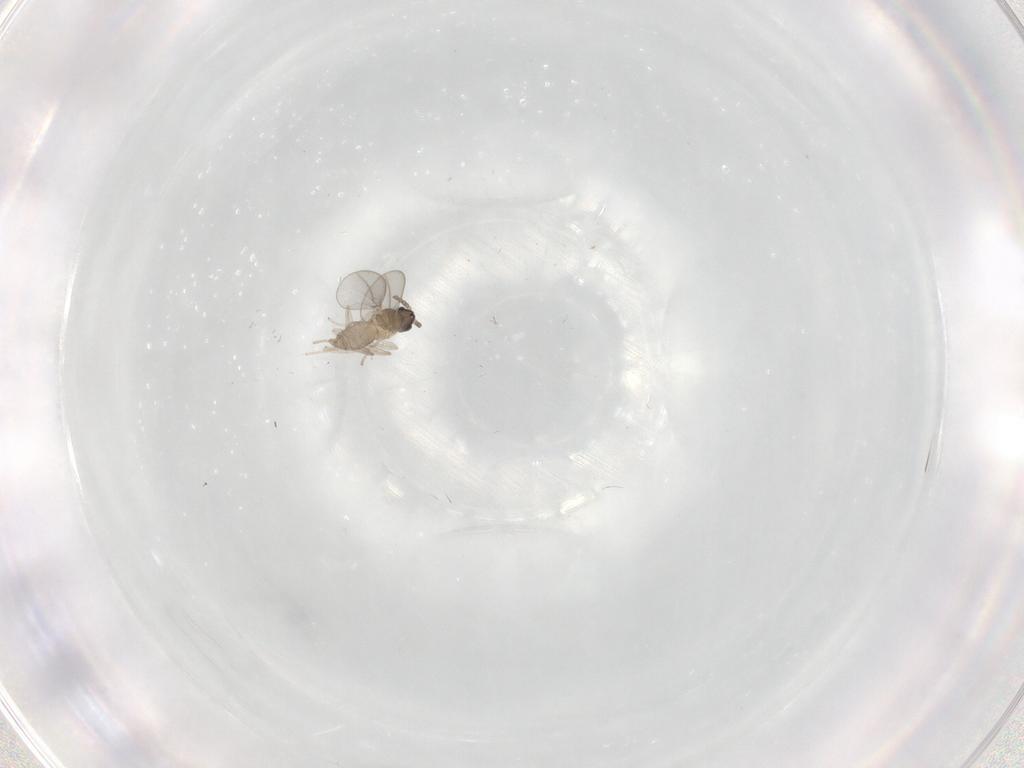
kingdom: Animalia
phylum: Arthropoda
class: Insecta
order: Diptera
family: Cecidomyiidae
